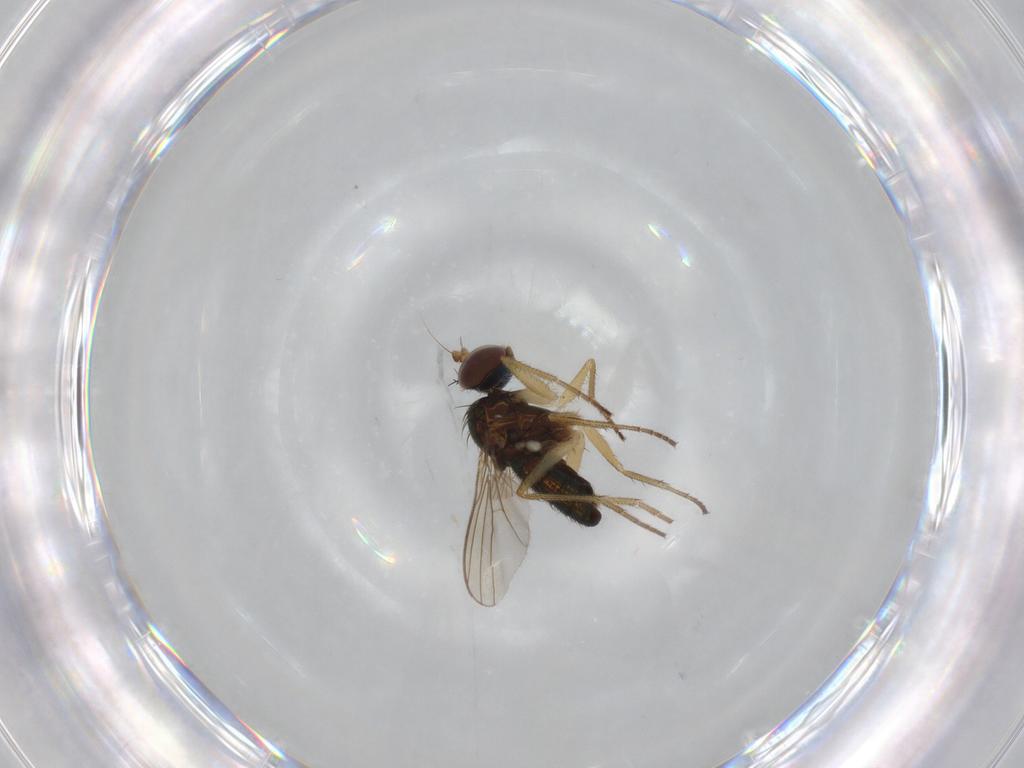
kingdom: Animalia
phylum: Arthropoda
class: Insecta
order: Diptera
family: Dolichopodidae
